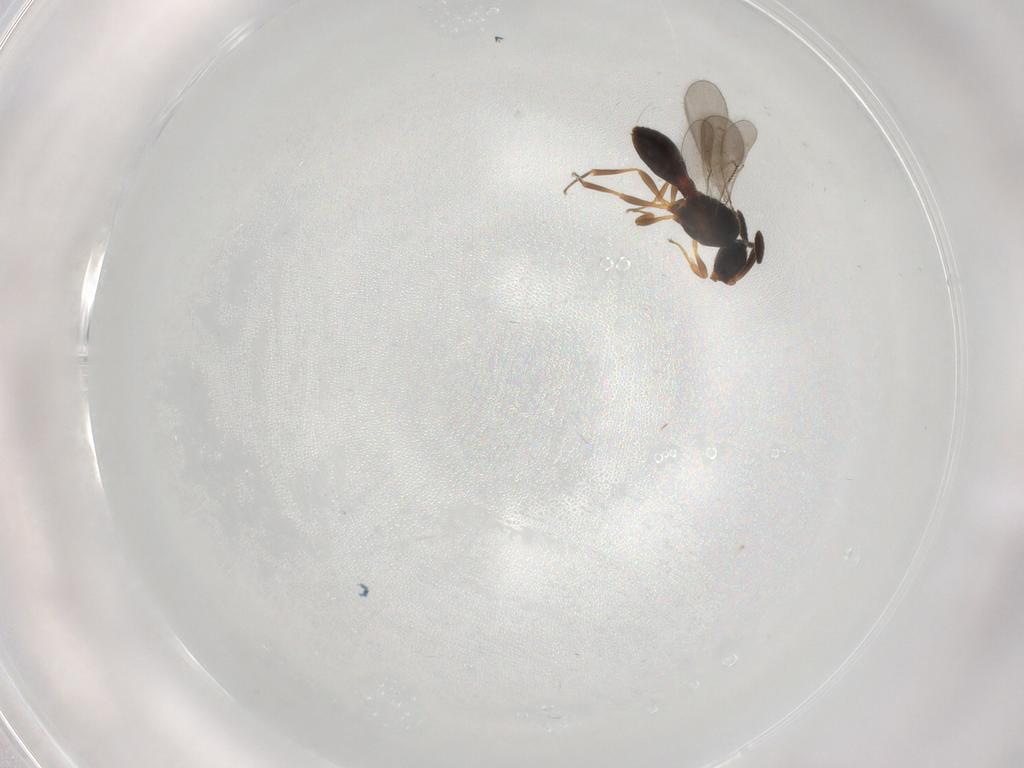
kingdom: Animalia
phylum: Arthropoda
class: Insecta
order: Hymenoptera
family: Scelionidae
